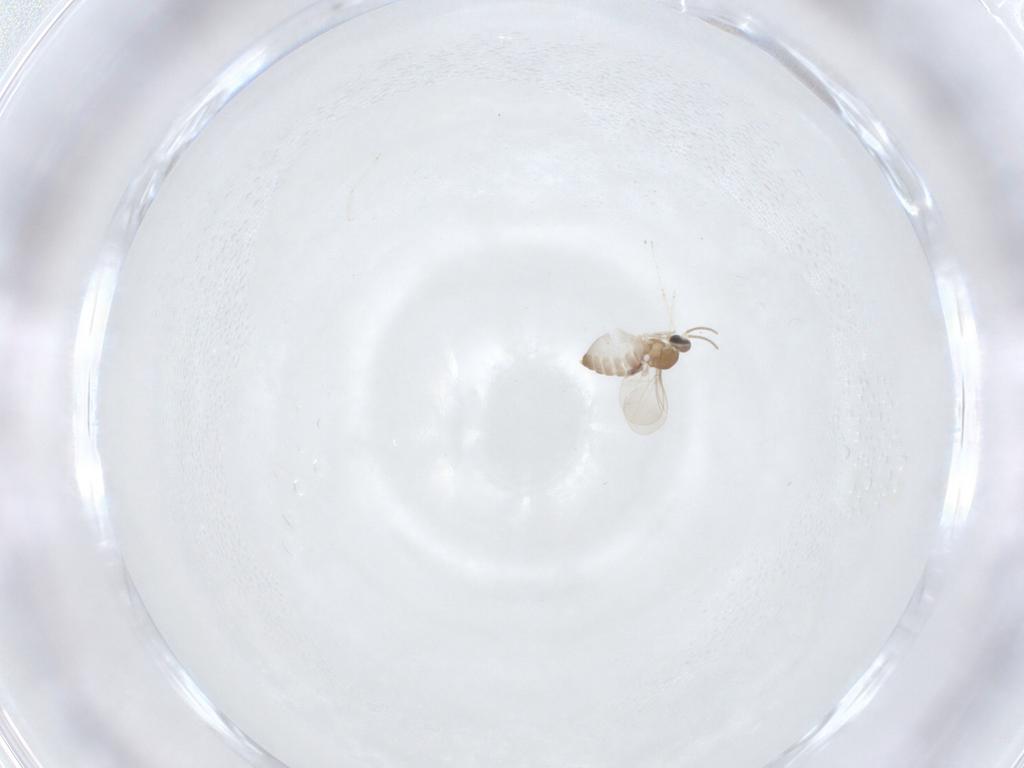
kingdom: Animalia
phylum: Arthropoda
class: Insecta
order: Diptera
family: Cecidomyiidae
